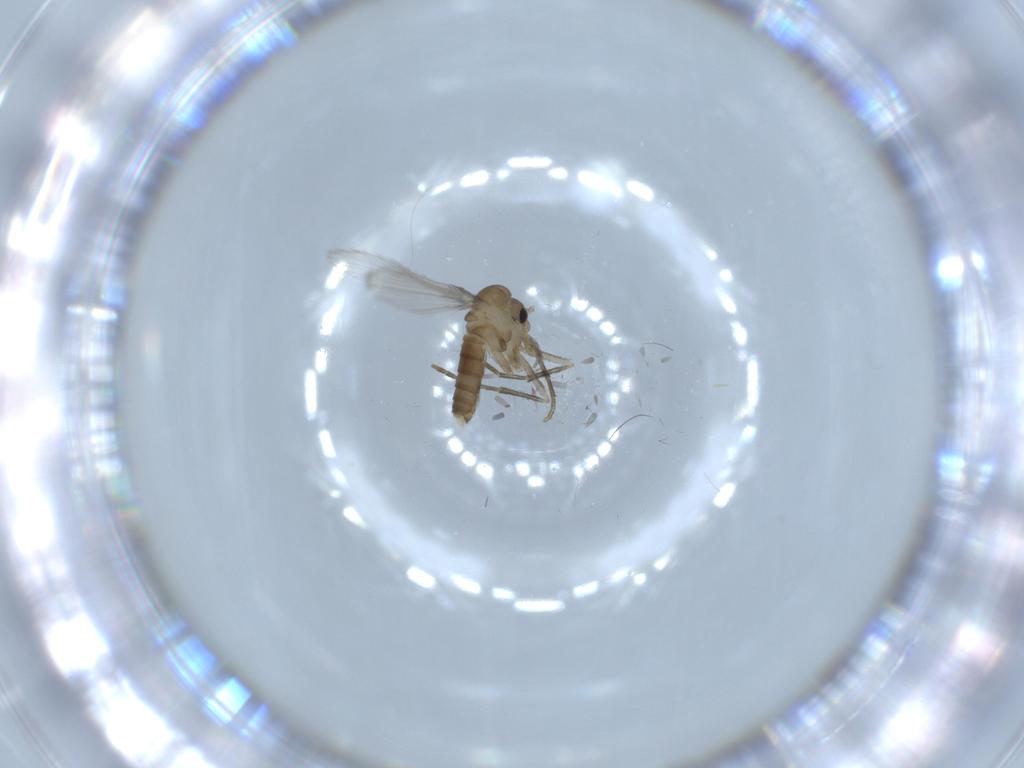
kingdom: Animalia
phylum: Arthropoda
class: Insecta
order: Diptera
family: Psychodidae
